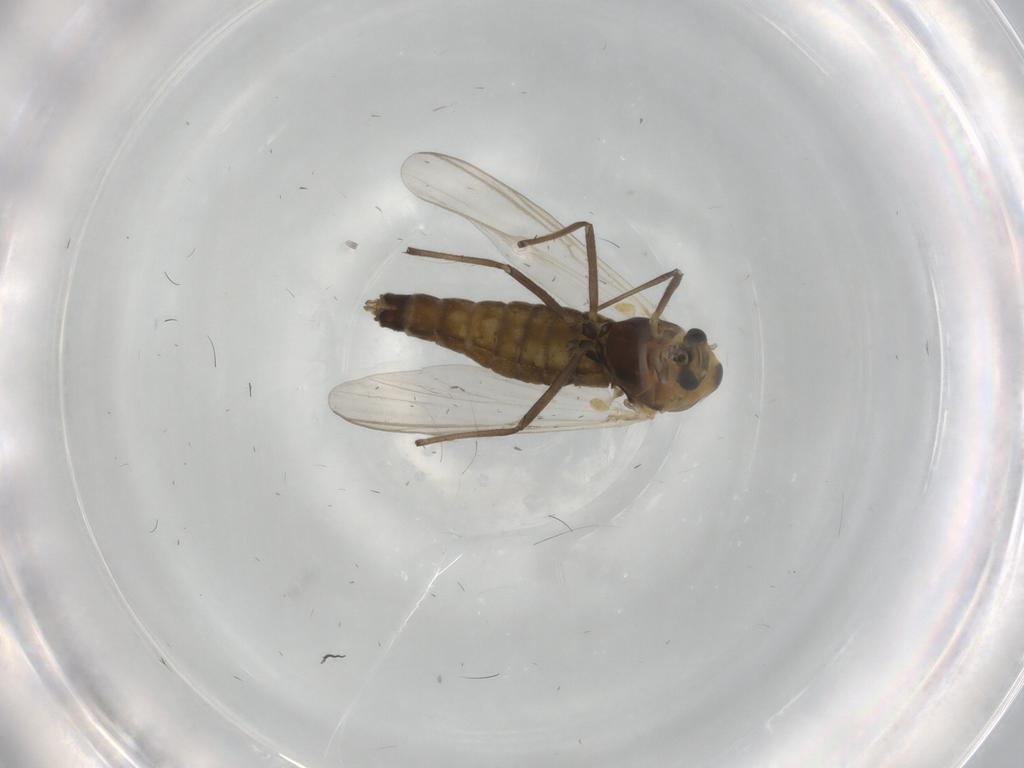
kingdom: Animalia
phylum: Arthropoda
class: Insecta
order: Diptera
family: Chironomidae
